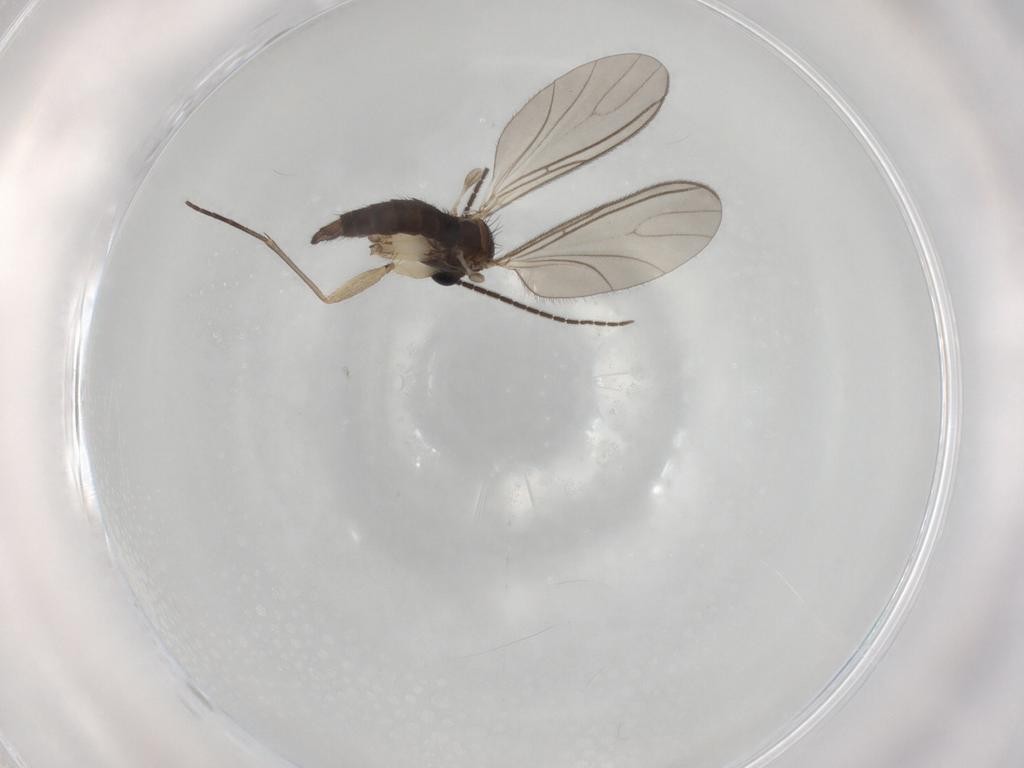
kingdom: Animalia
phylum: Arthropoda
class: Insecta
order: Diptera
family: Sciaridae
